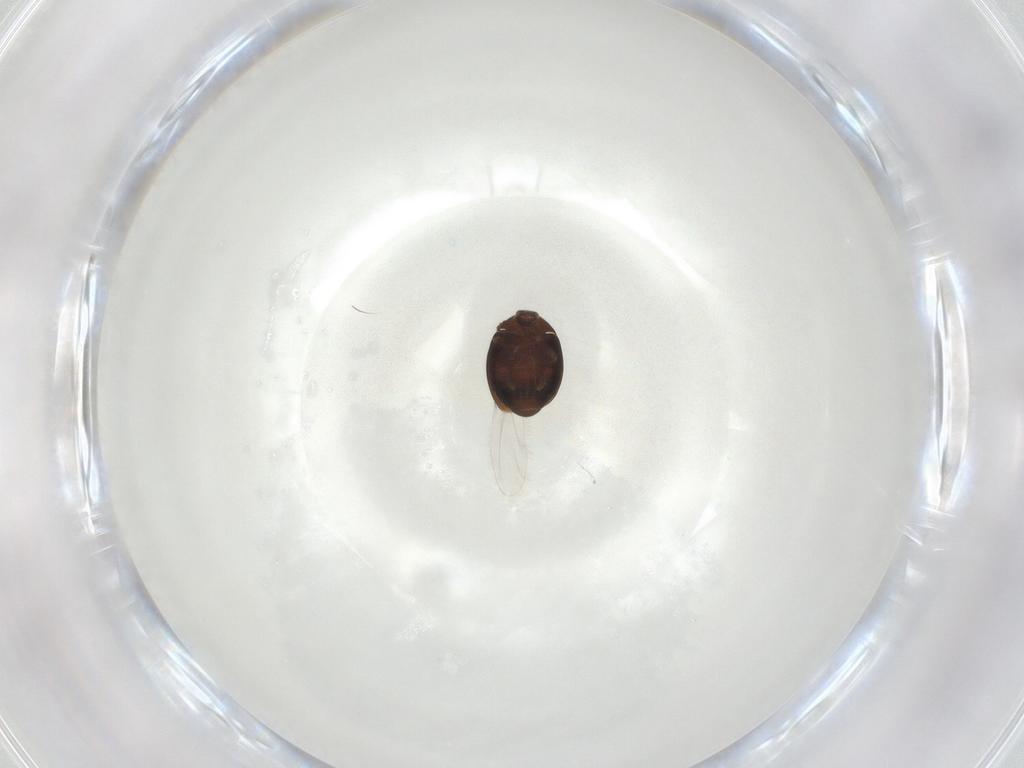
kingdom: Animalia
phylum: Arthropoda
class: Insecta
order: Coleoptera
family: Corylophidae
